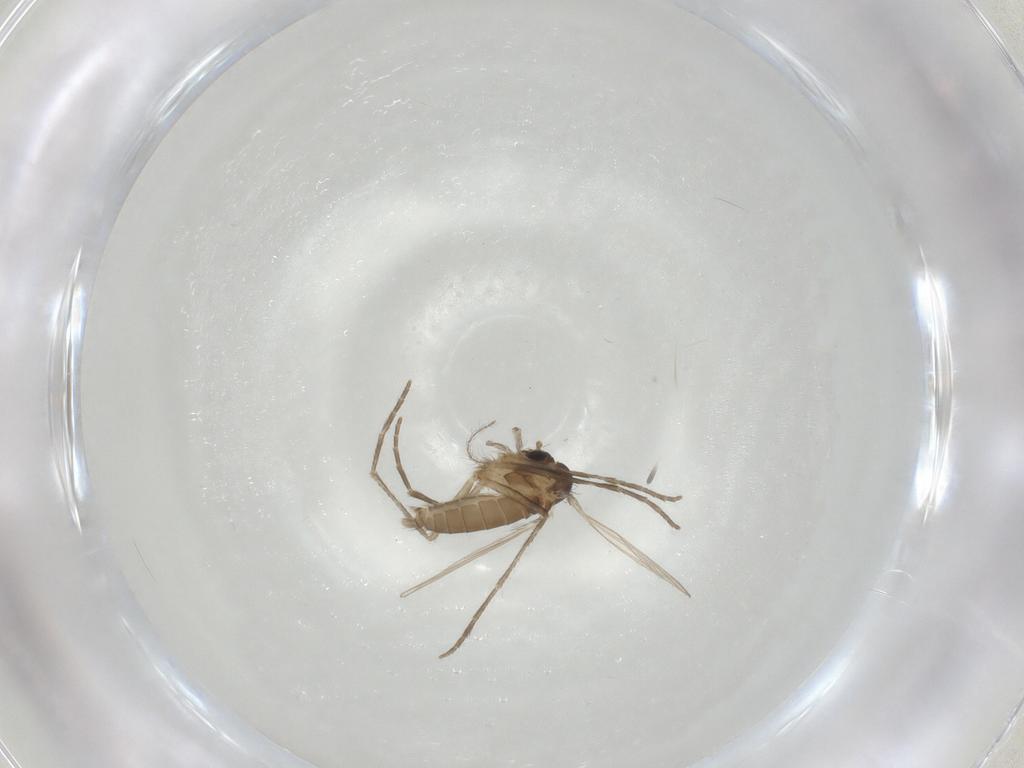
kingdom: Animalia
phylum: Arthropoda
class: Insecta
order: Diptera
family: Psychodidae
